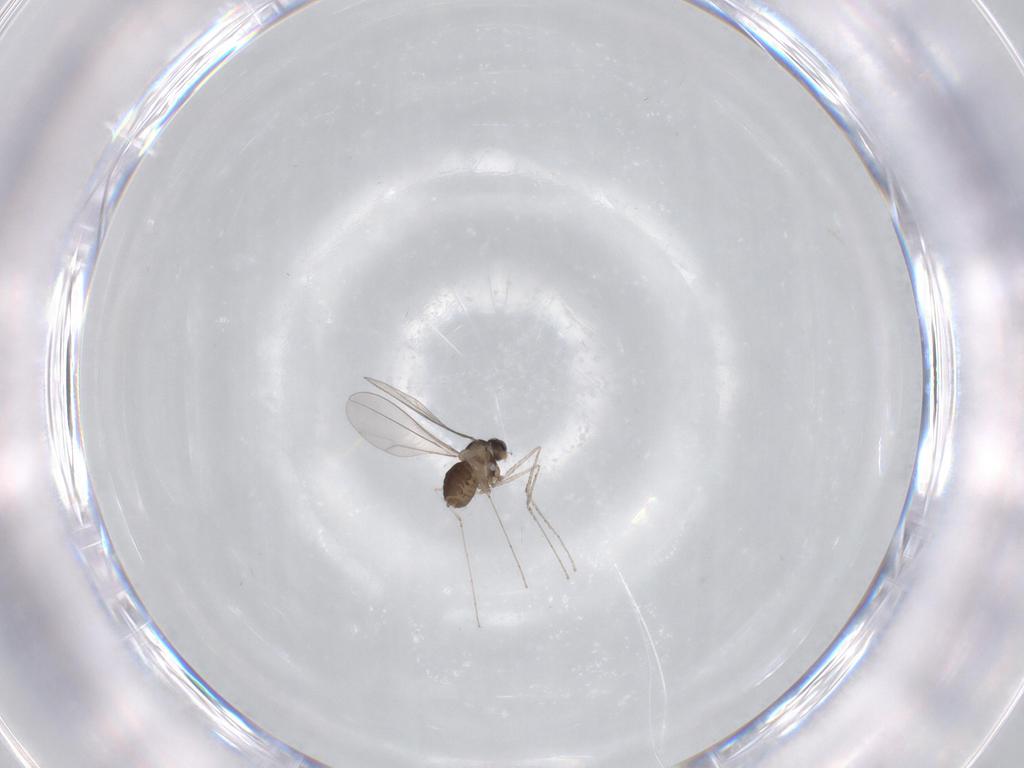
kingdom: Animalia
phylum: Arthropoda
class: Insecta
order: Diptera
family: Cecidomyiidae
